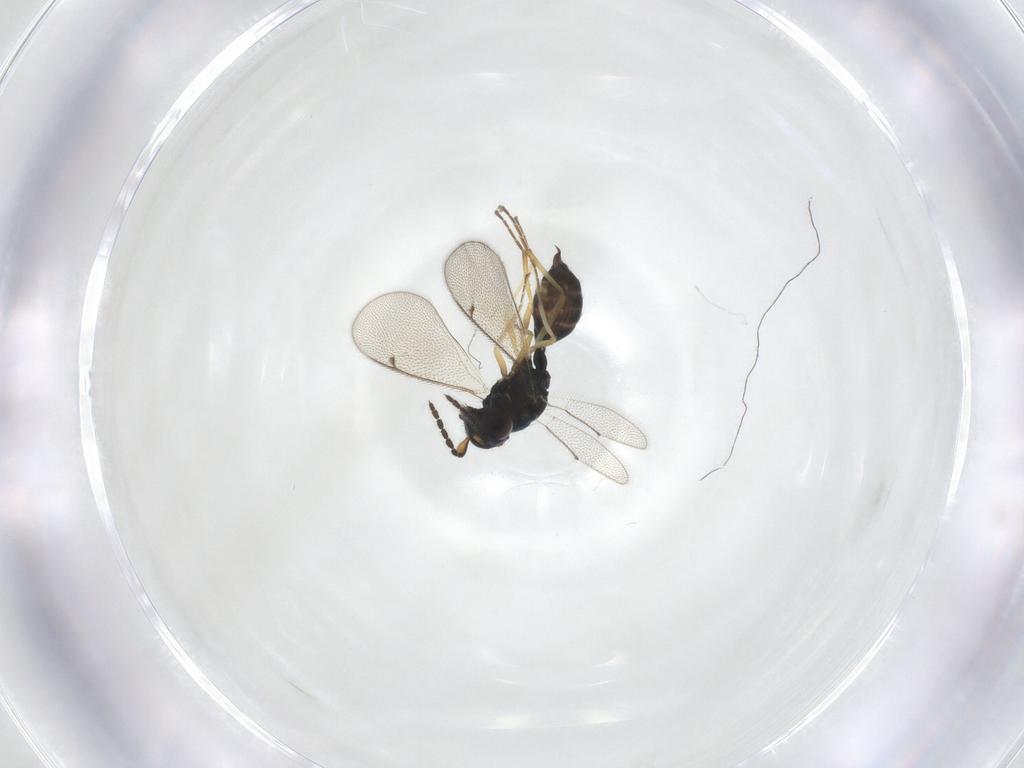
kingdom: Animalia
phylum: Arthropoda
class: Insecta
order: Hymenoptera
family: Eulophidae
